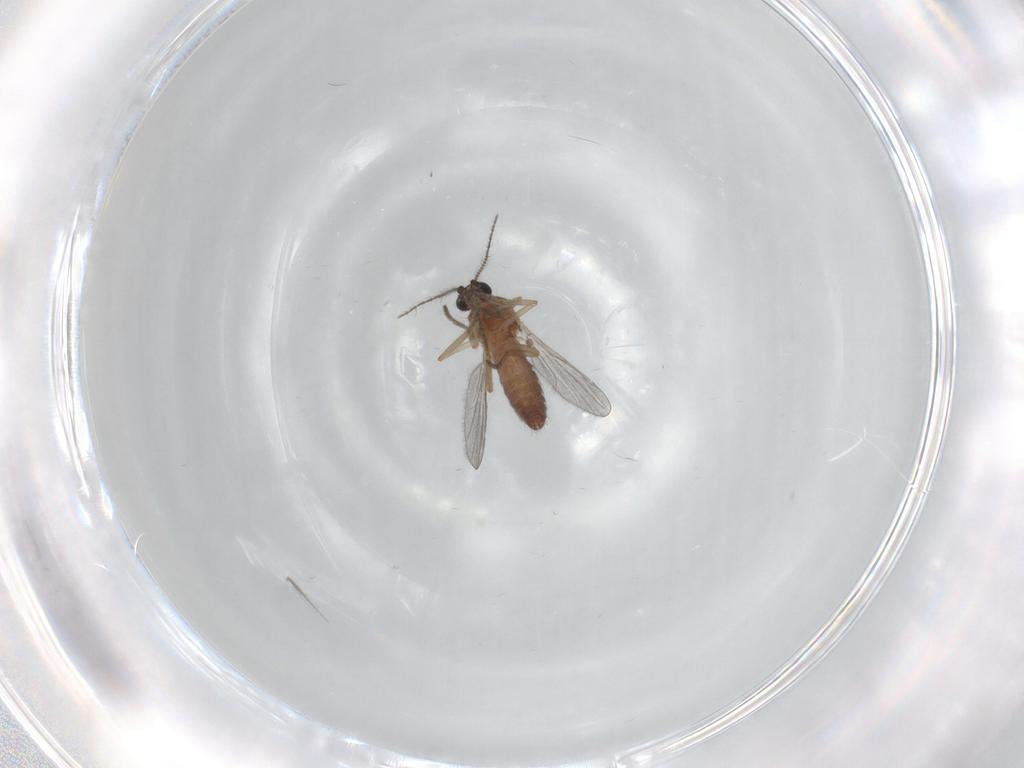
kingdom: Animalia
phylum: Arthropoda
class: Insecta
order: Diptera
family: Ceratopogonidae
